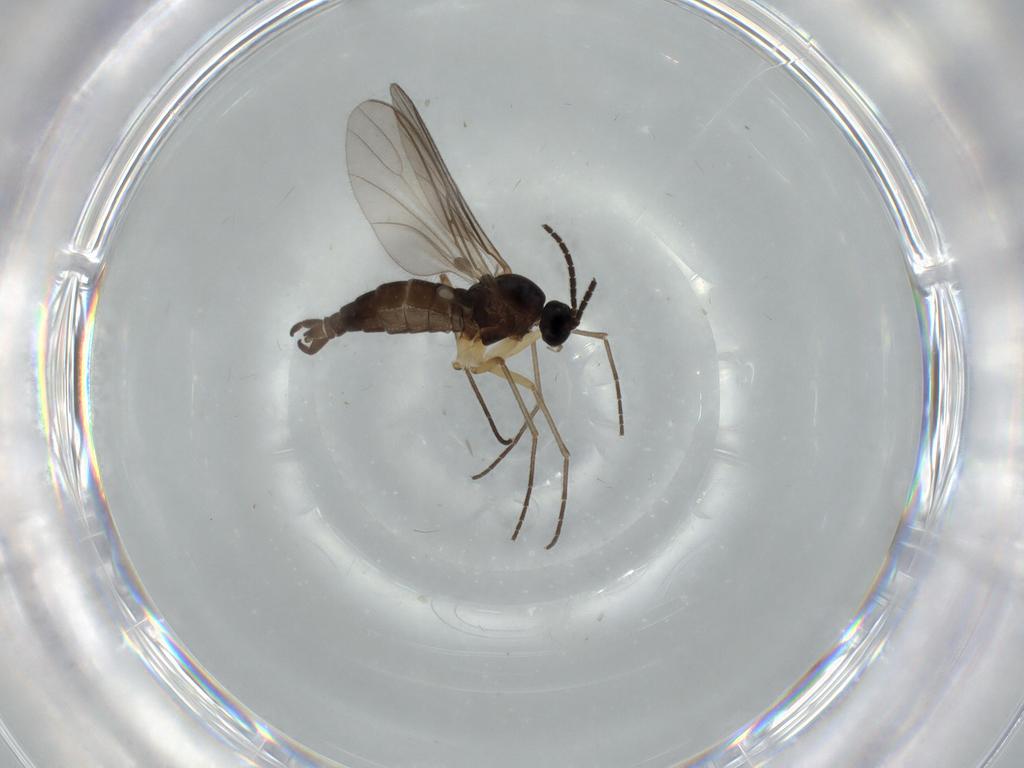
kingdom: Animalia
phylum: Arthropoda
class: Insecta
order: Diptera
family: Sciaridae
